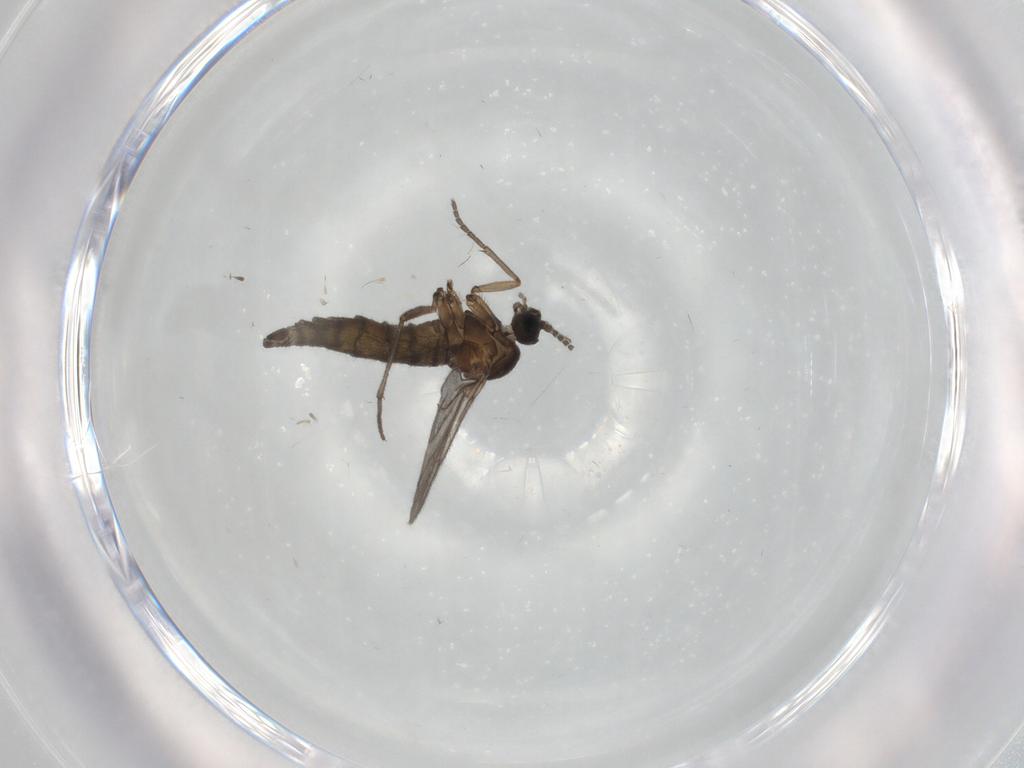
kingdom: Animalia
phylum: Arthropoda
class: Insecta
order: Diptera
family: Sciaridae
